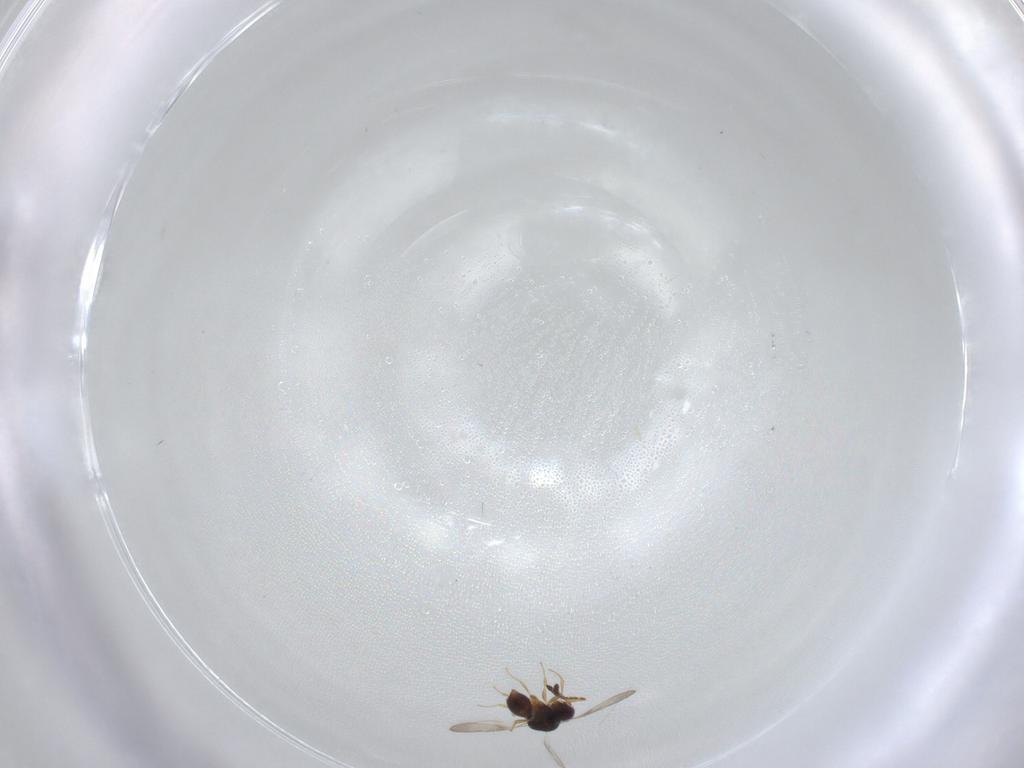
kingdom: Animalia
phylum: Arthropoda
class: Insecta
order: Hymenoptera
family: Ceraphronidae
